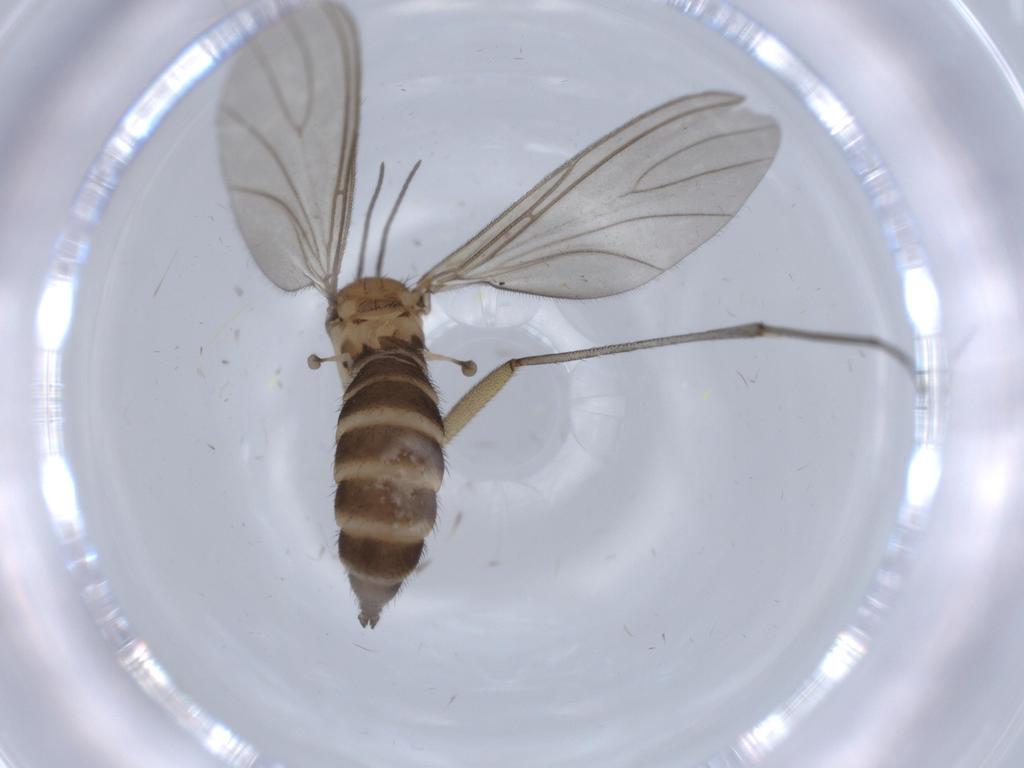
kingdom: Animalia
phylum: Arthropoda
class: Insecta
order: Diptera
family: Sciaridae
